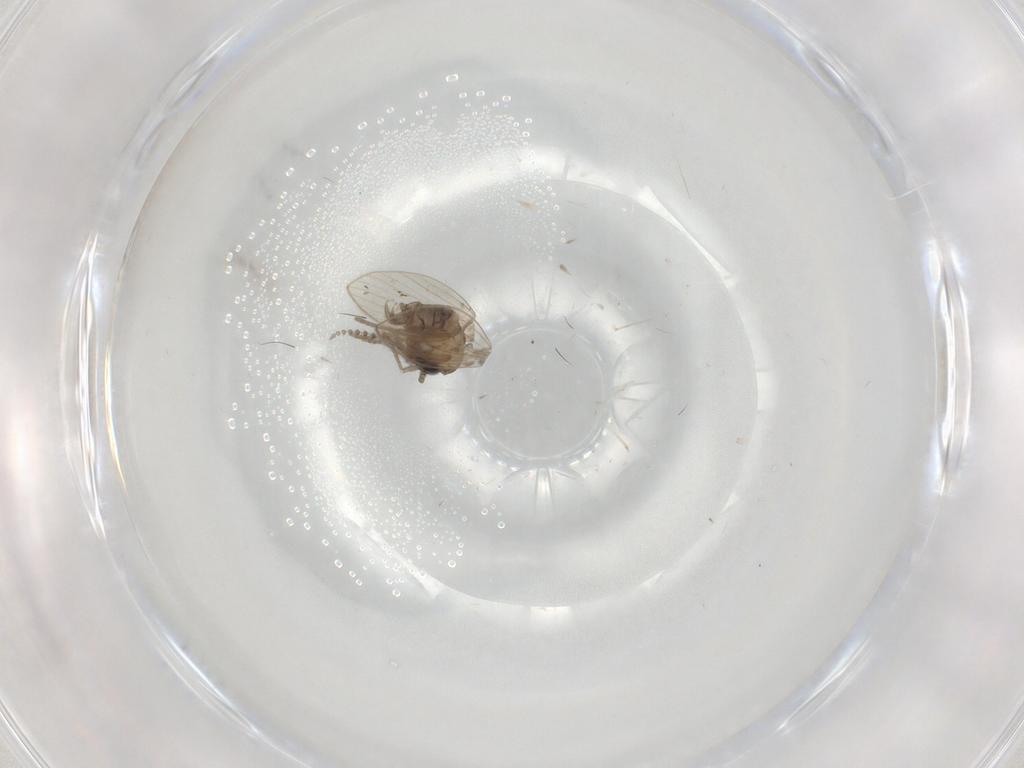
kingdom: Animalia
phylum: Arthropoda
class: Insecta
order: Diptera
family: Psychodidae
